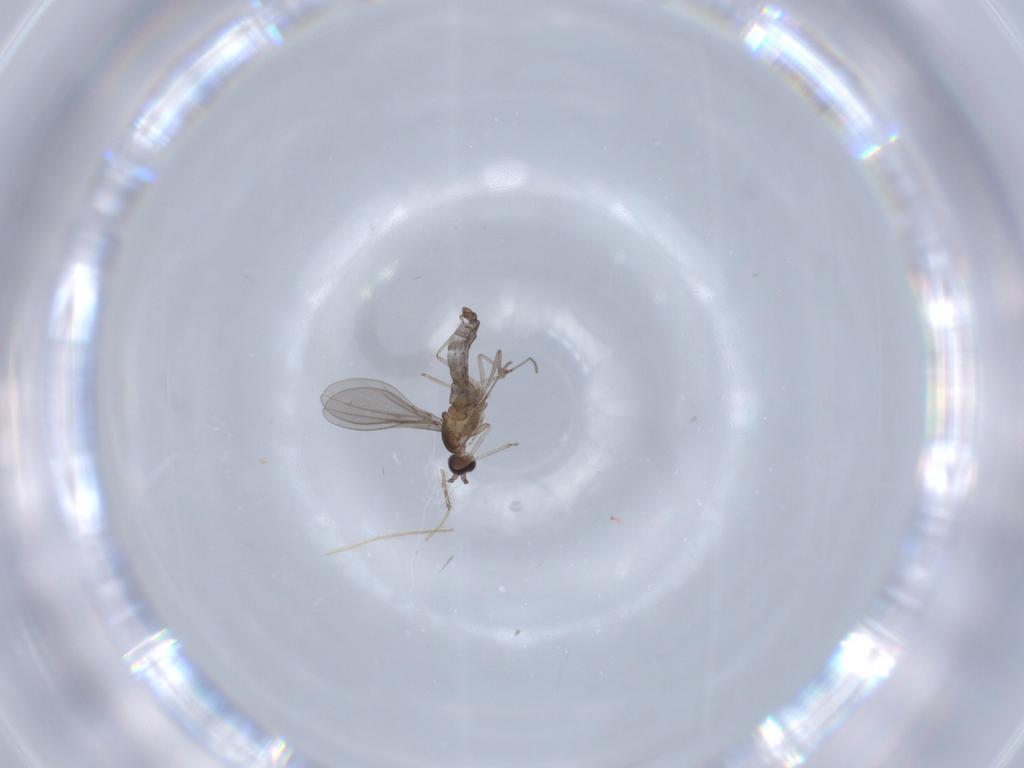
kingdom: Animalia
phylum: Arthropoda
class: Insecta
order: Diptera
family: Cecidomyiidae
